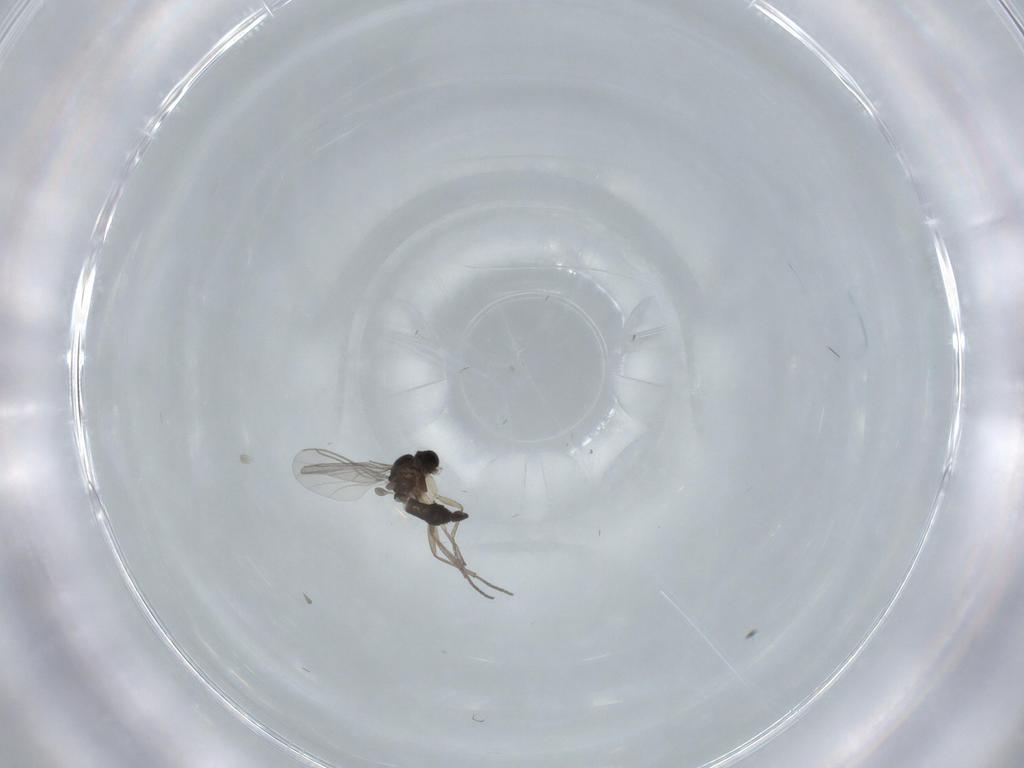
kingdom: Animalia
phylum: Arthropoda
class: Insecta
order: Diptera
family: Sciaridae
